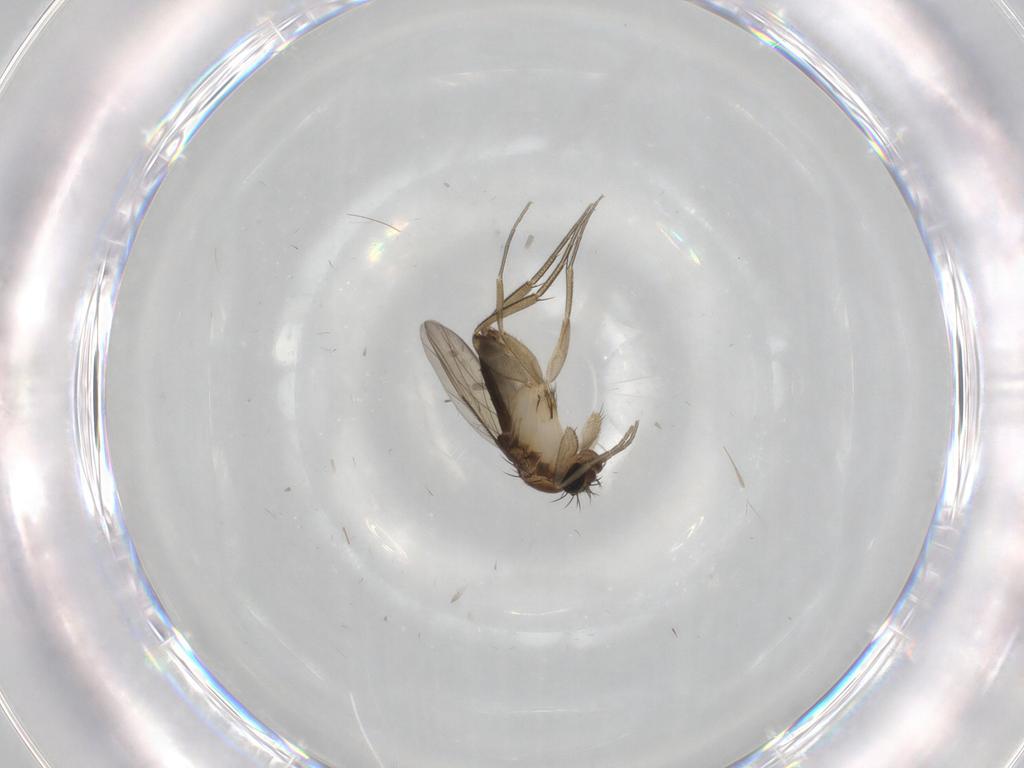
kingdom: Animalia
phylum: Arthropoda
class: Insecta
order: Diptera
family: Phoridae
